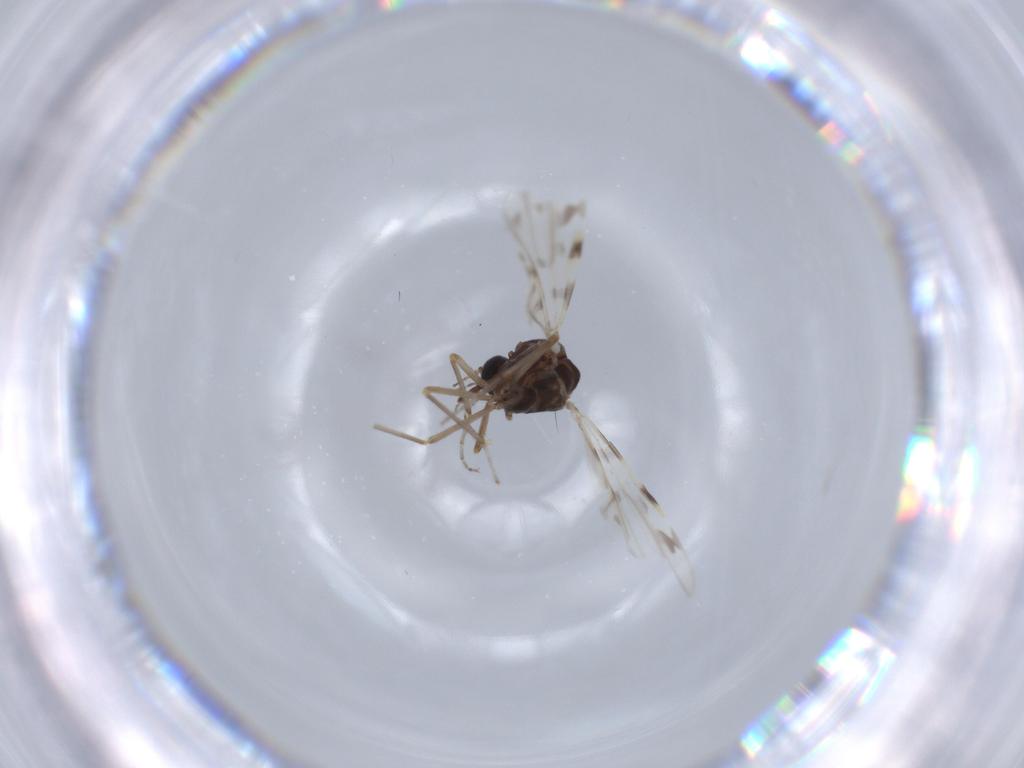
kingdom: Animalia
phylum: Arthropoda
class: Insecta
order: Diptera
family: Ceratopogonidae
